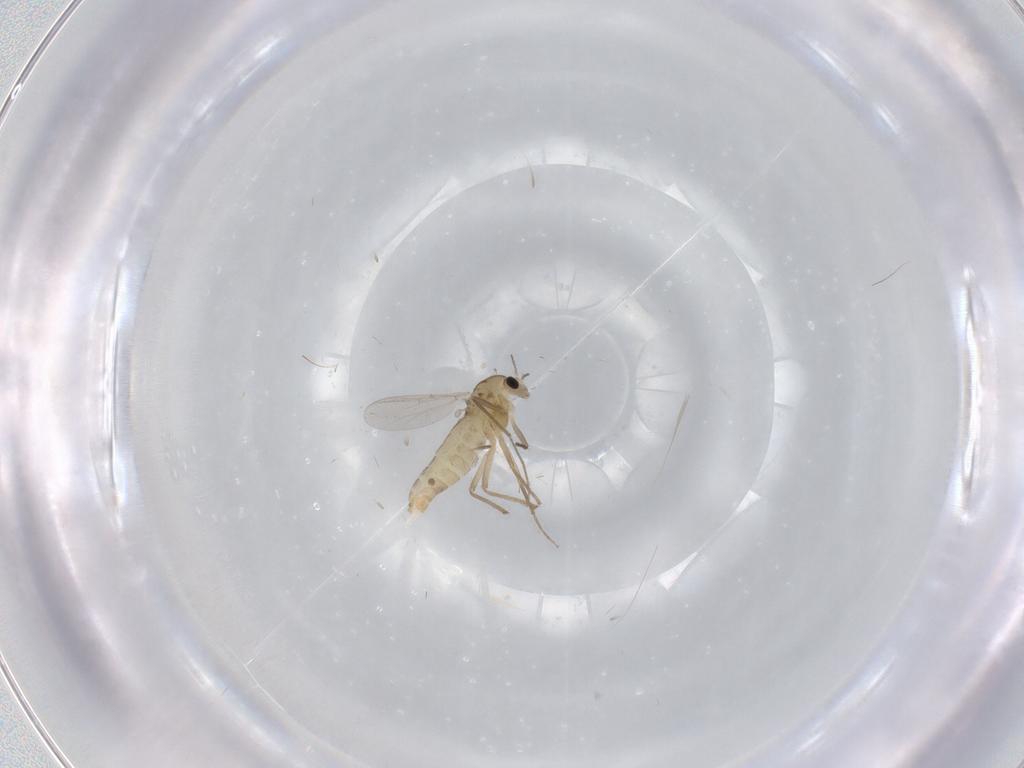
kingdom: Animalia
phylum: Arthropoda
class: Insecta
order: Diptera
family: Chironomidae
